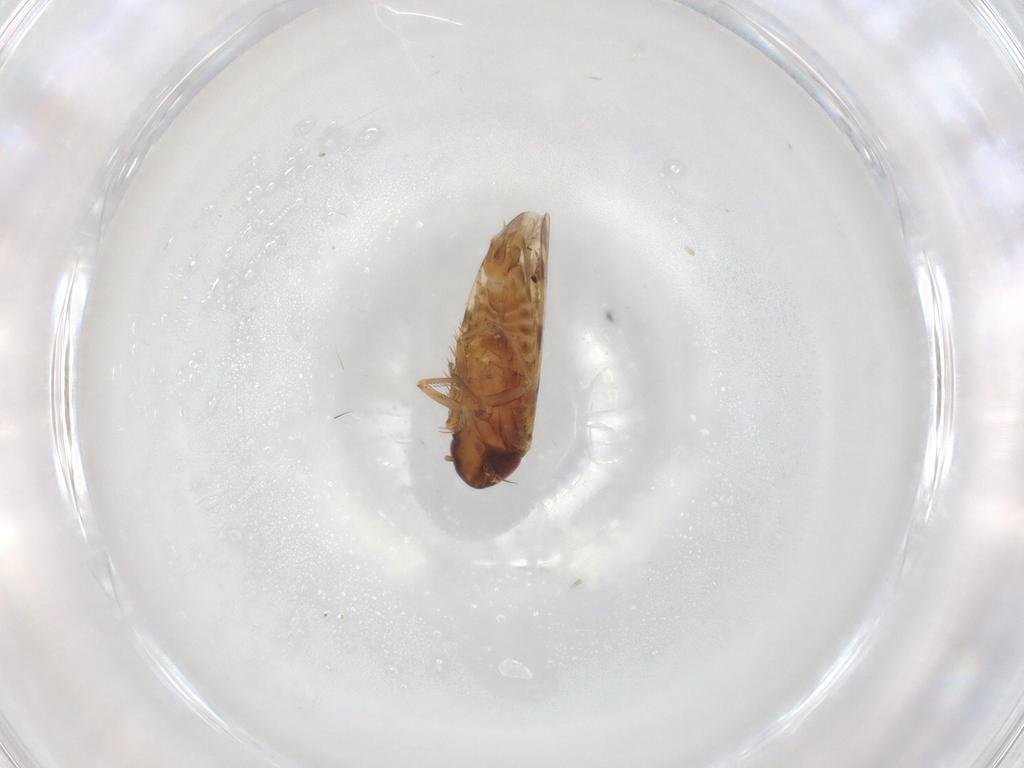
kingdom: Animalia
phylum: Arthropoda
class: Insecta
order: Hemiptera
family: Cicadellidae
